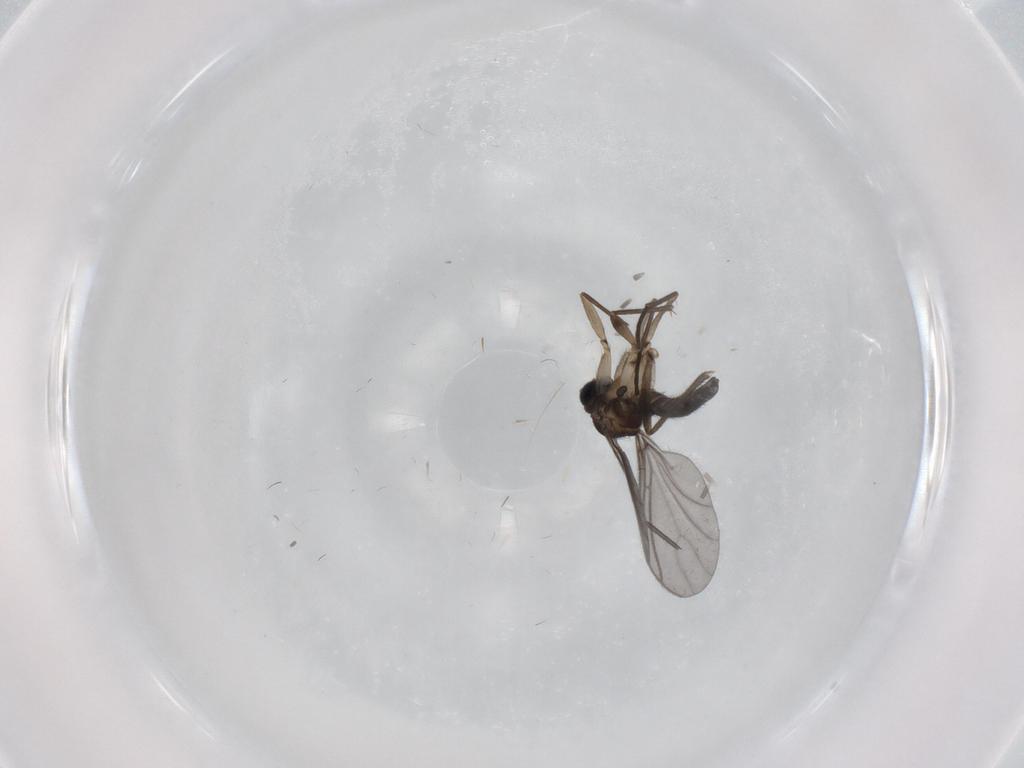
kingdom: Animalia
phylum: Arthropoda
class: Insecta
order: Diptera
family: Sciaridae
